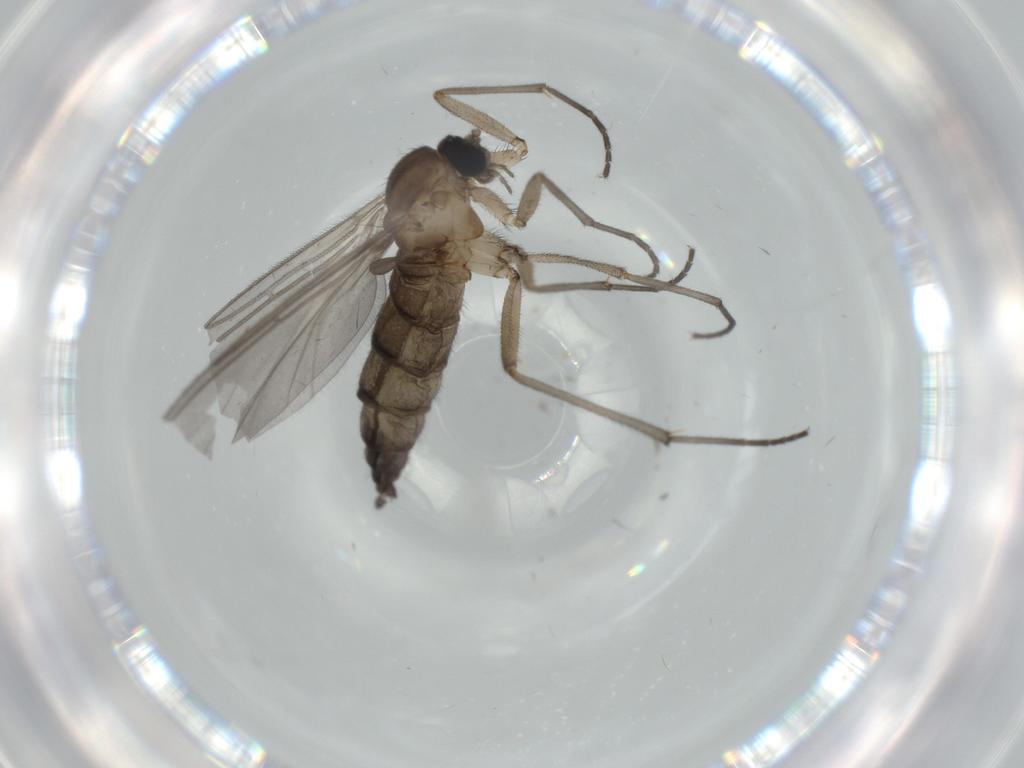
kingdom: Animalia
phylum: Arthropoda
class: Insecta
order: Diptera
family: Sciaridae
